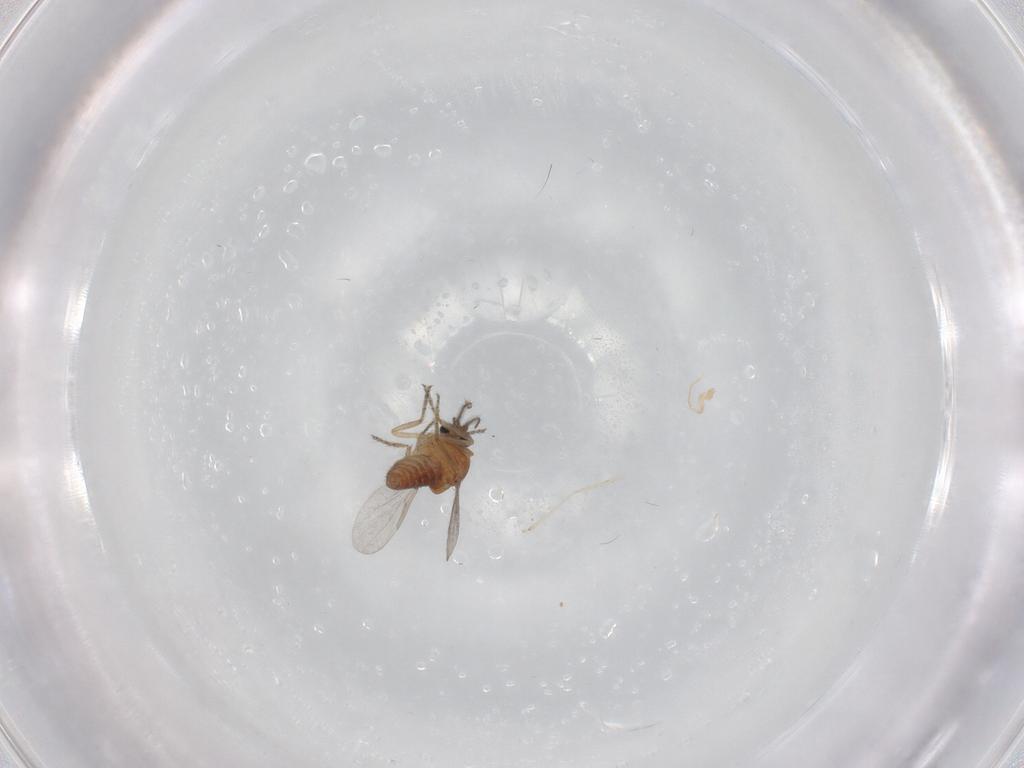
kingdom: Animalia
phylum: Arthropoda
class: Insecta
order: Diptera
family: Ceratopogonidae
